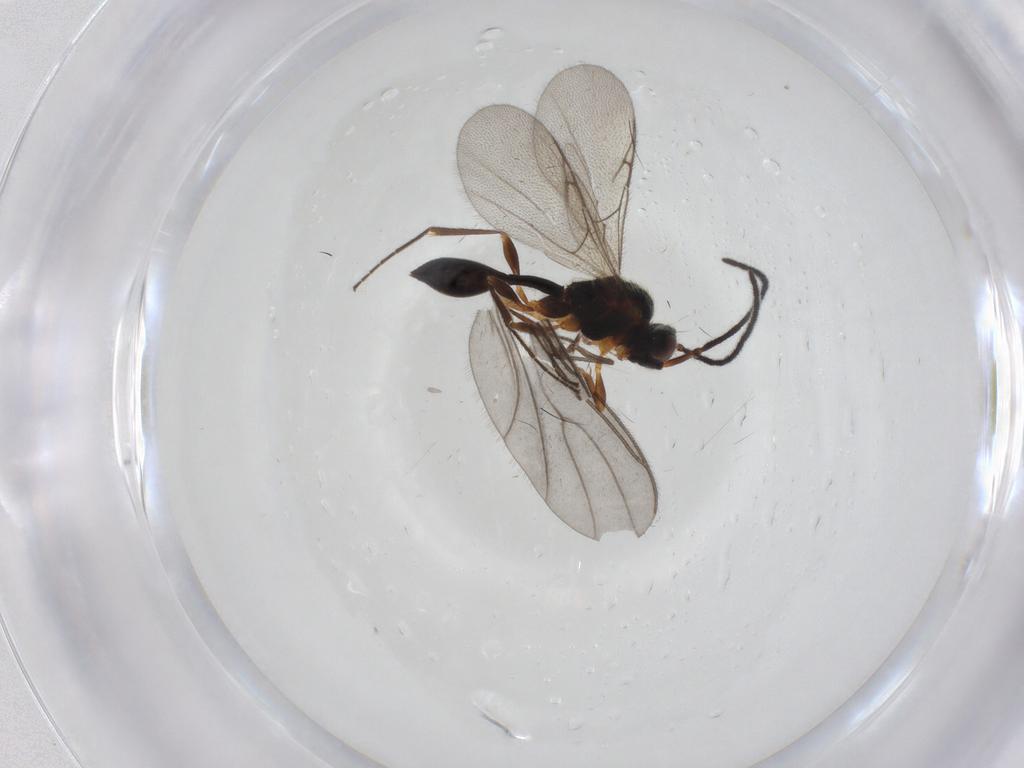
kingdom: Animalia
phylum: Arthropoda
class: Insecta
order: Hymenoptera
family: Diapriidae
